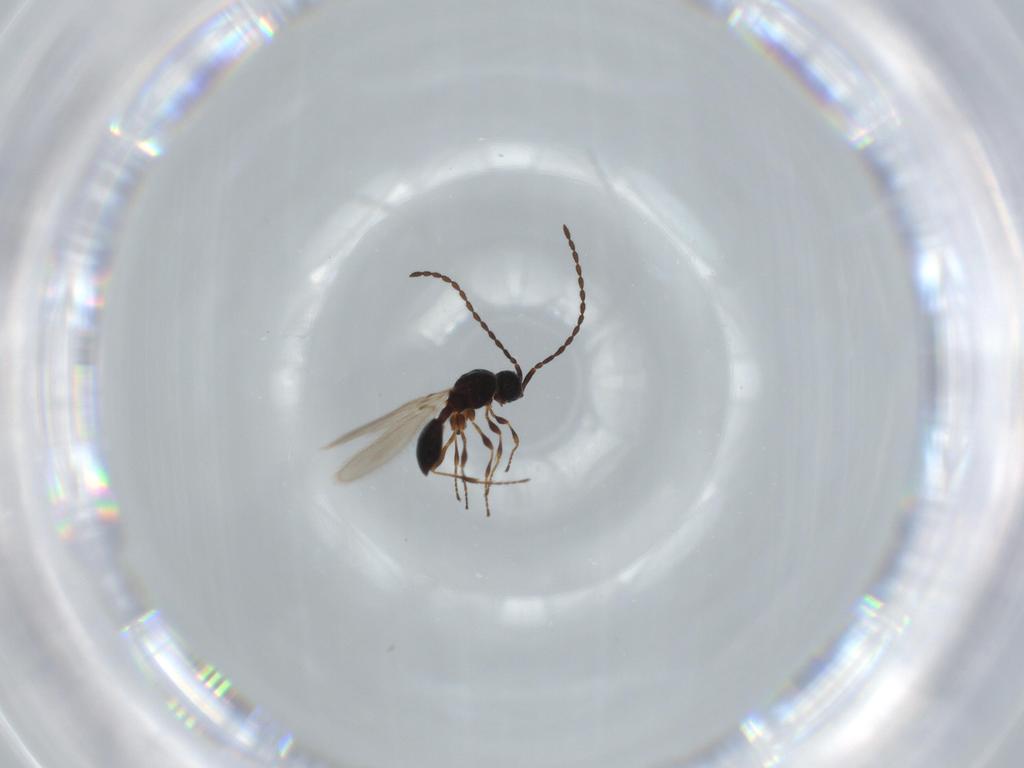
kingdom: Animalia
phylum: Arthropoda
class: Insecta
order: Hymenoptera
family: Diapriidae
